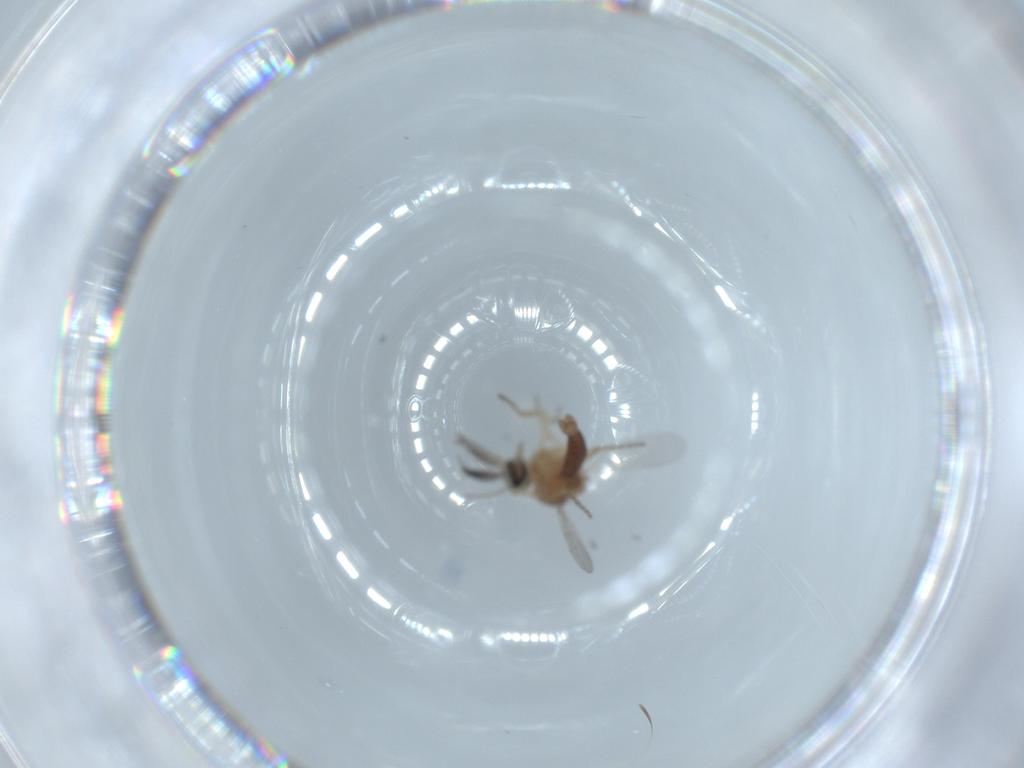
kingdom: Animalia
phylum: Arthropoda
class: Insecta
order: Diptera
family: Ceratopogonidae
